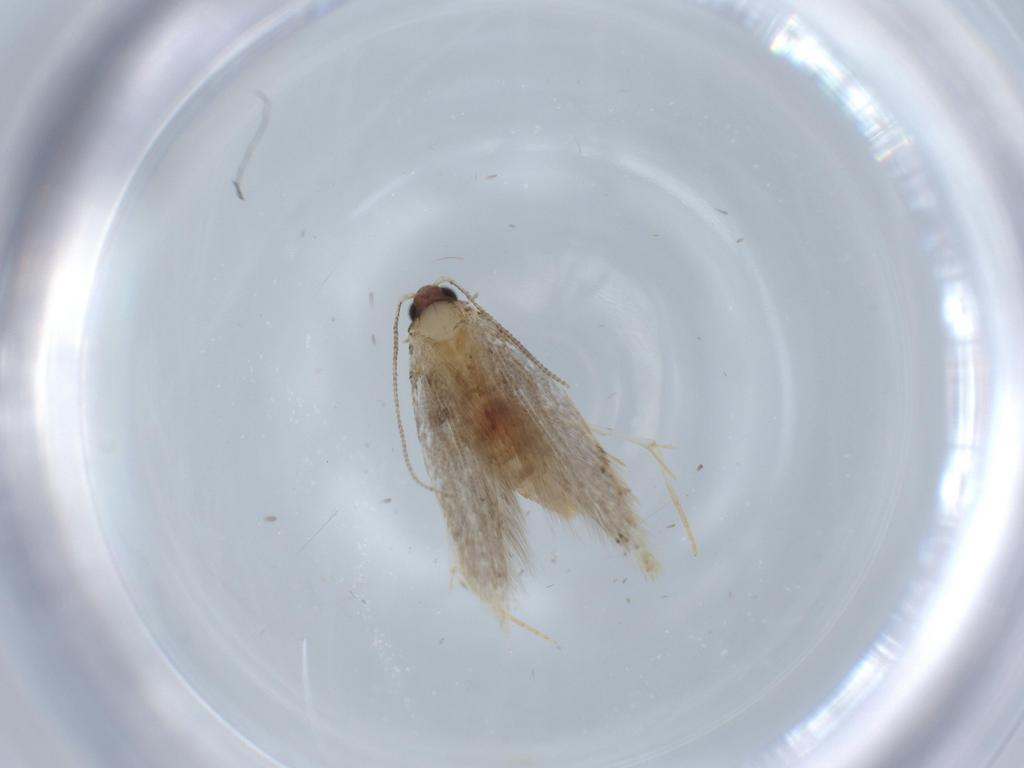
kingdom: Animalia
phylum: Arthropoda
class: Insecta
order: Lepidoptera
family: Tineidae
